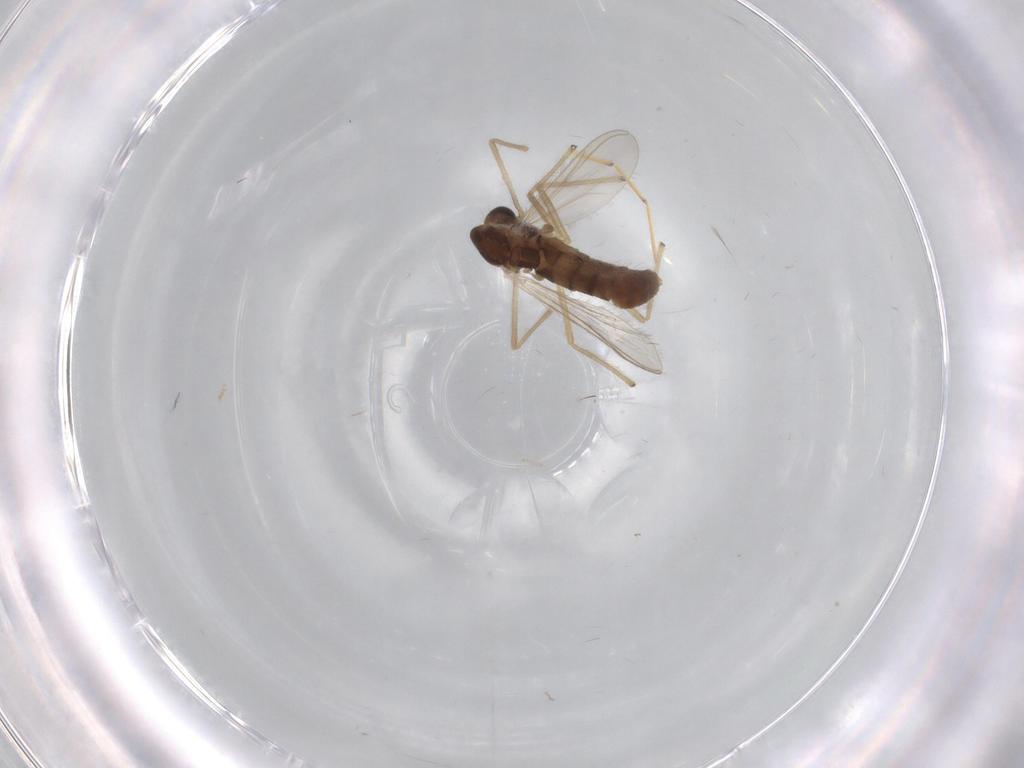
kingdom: Animalia
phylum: Arthropoda
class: Insecta
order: Diptera
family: Chironomidae
